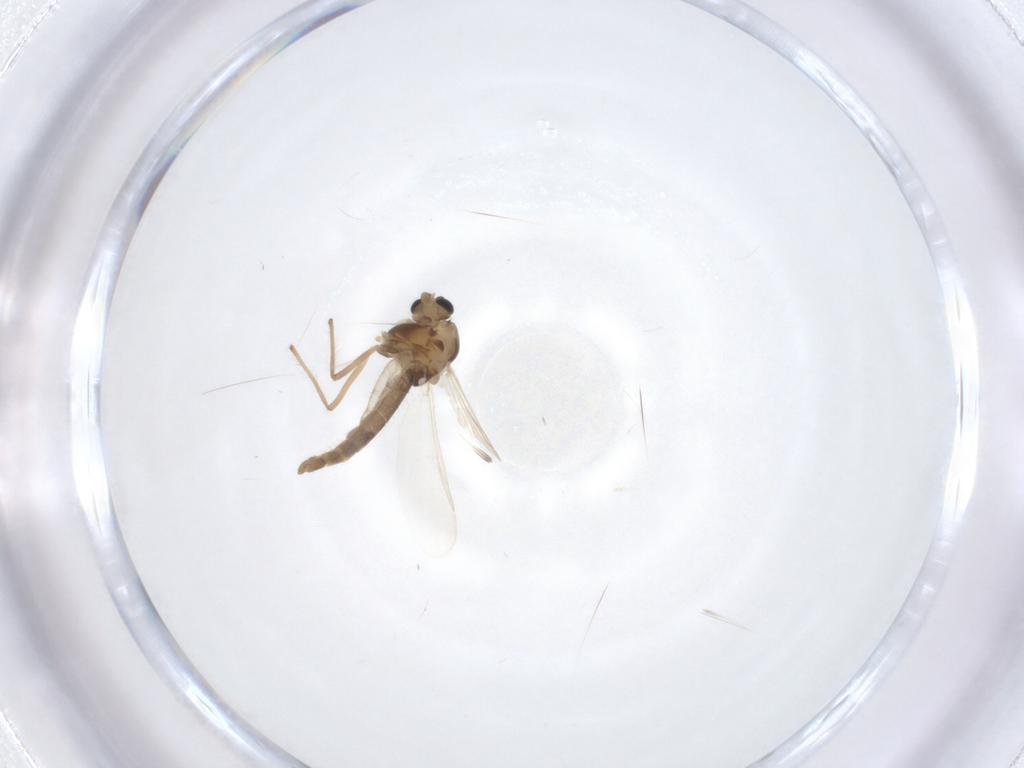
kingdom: Animalia
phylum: Arthropoda
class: Insecta
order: Diptera
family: Chironomidae
